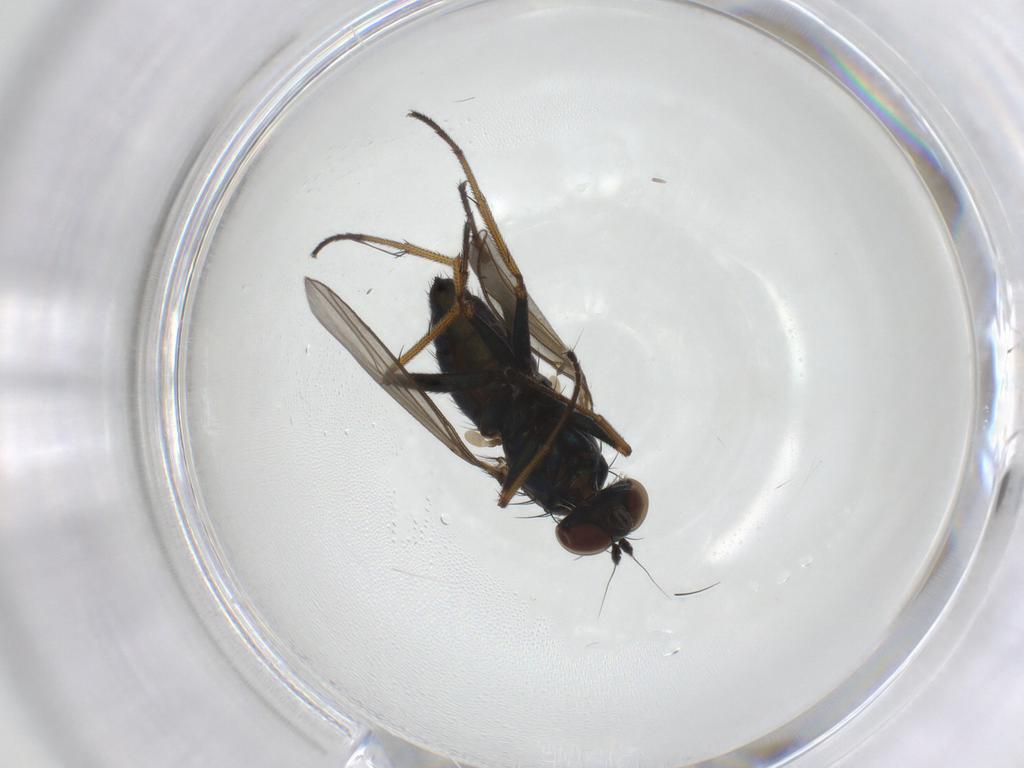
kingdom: Animalia
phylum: Arthropoda
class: Insecta
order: Diptera
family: Dolichopodidae
